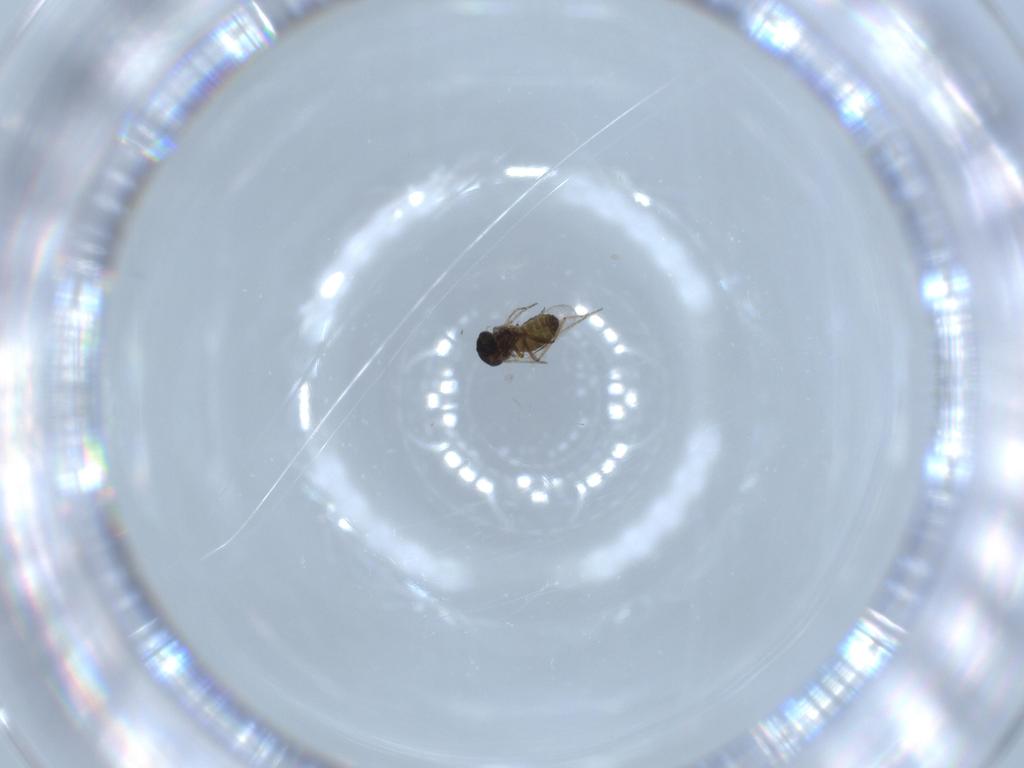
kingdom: Animalia
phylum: Arthropoda
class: Insecta
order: Diptera
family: Ceratopogonidae
